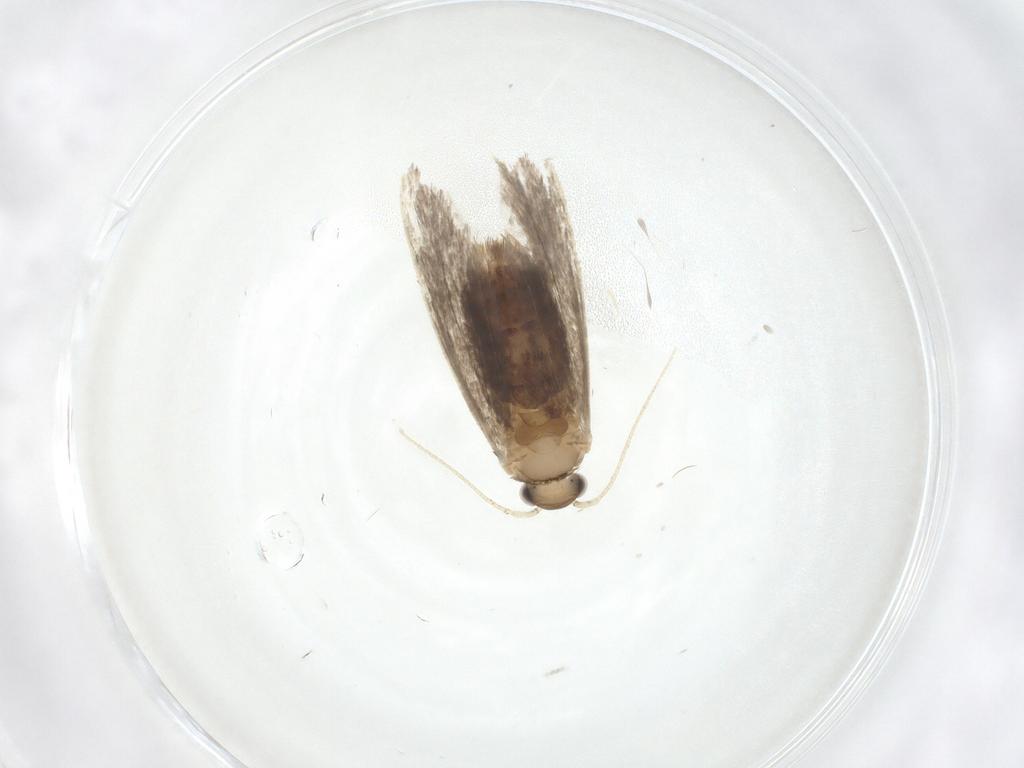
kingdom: Animalia
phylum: Arthropoda
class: Insecta
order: Lepidoptera
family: Tineidae
